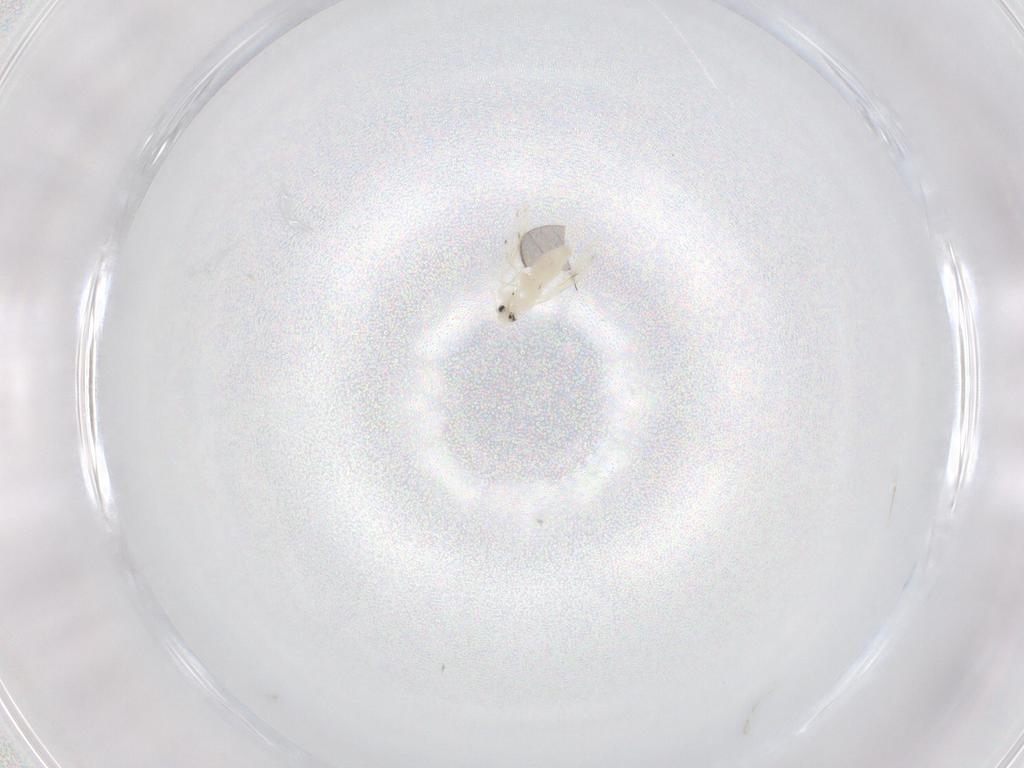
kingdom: Animalia
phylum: Arthropoda
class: Insecta
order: Hemiptera
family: Aleyrodidae
